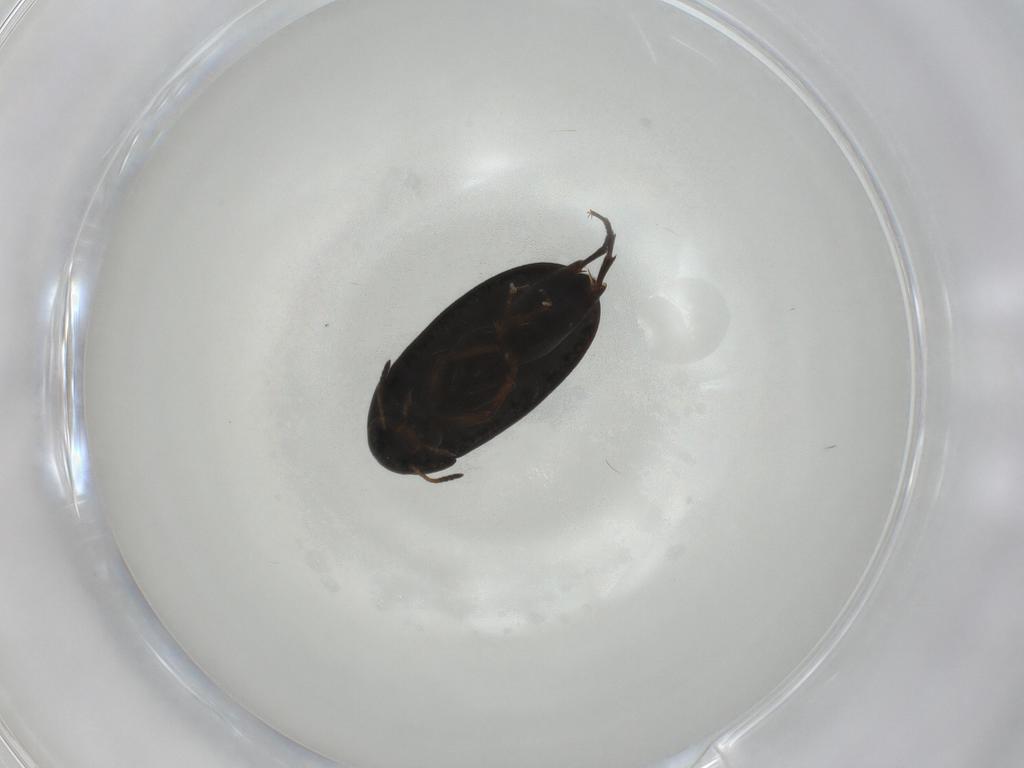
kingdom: Animalia
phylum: Arthropoda
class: Insecta
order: Coleoptera
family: Scraptiidae
